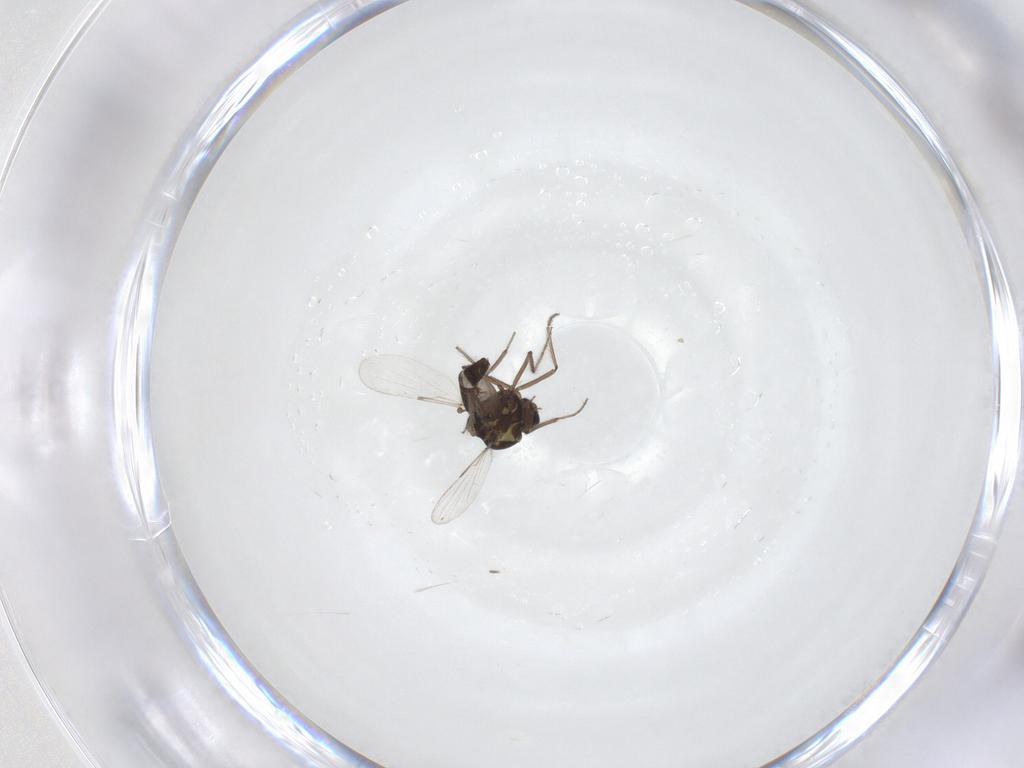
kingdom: Animalia
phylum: Arthropoda
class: Insecta
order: Diptera
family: Ceratopogonidae
